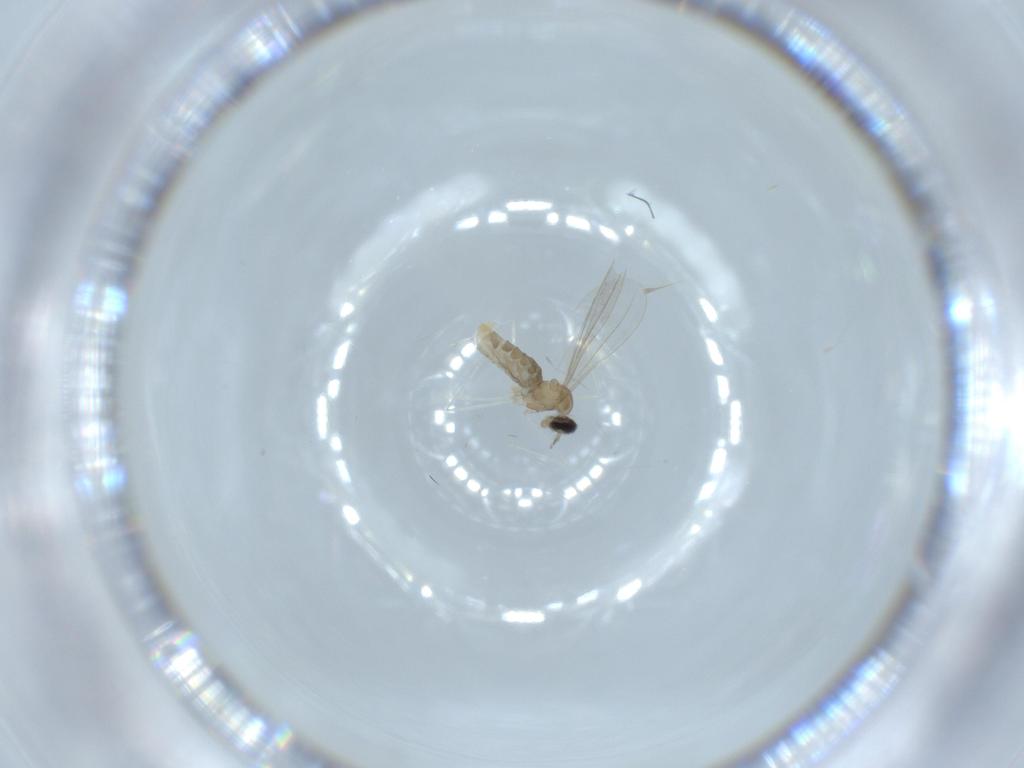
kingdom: Animalia
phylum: Arthropoda
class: Insecta
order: Diptera
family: Cecidomyiidae
